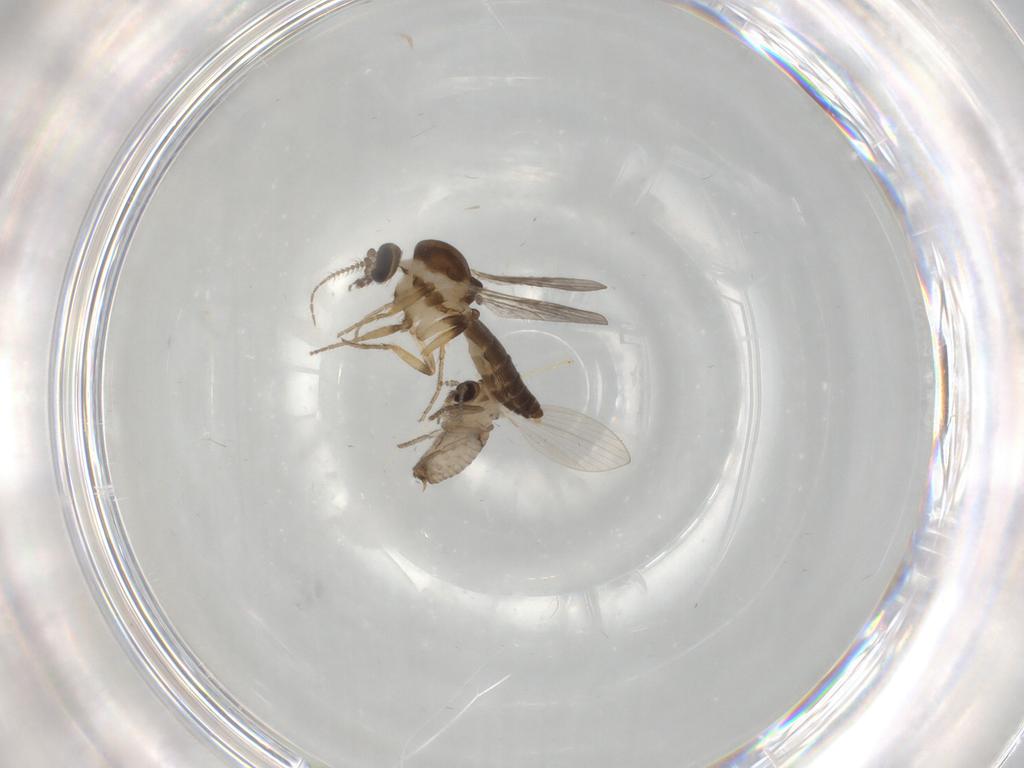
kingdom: Animalia
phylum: Arthropoda
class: Insecta
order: Diptera
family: Ceratopogonidae
